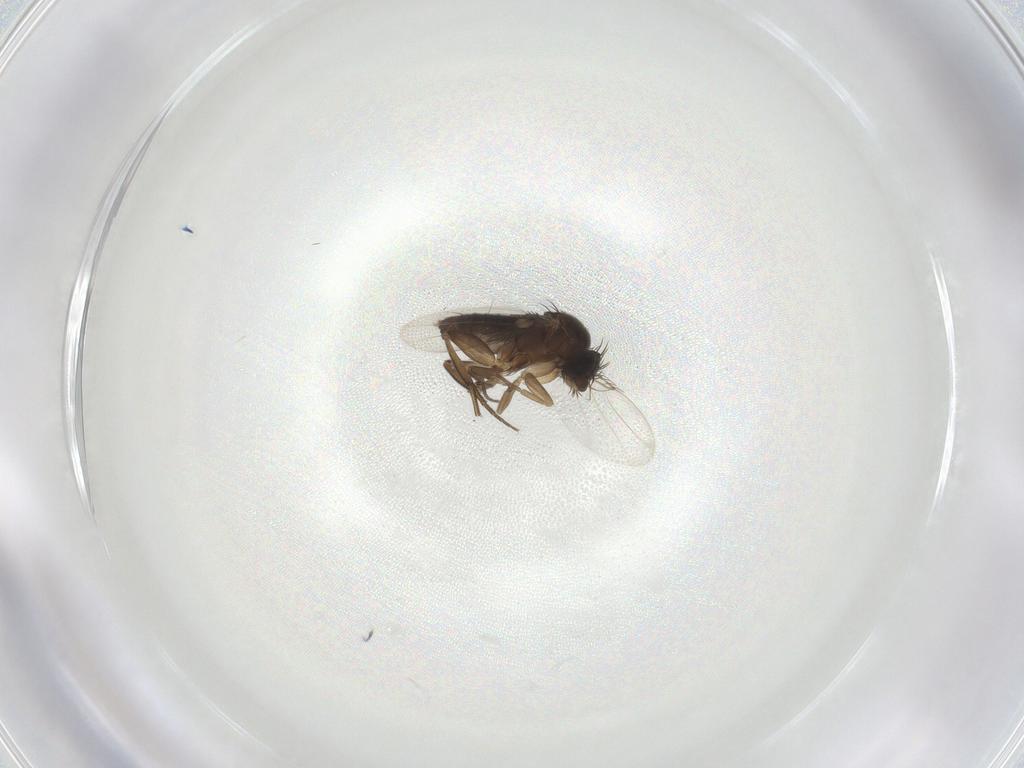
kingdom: Animalia
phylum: Arthropoda
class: Insecta
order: Diptera
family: Phoridae
